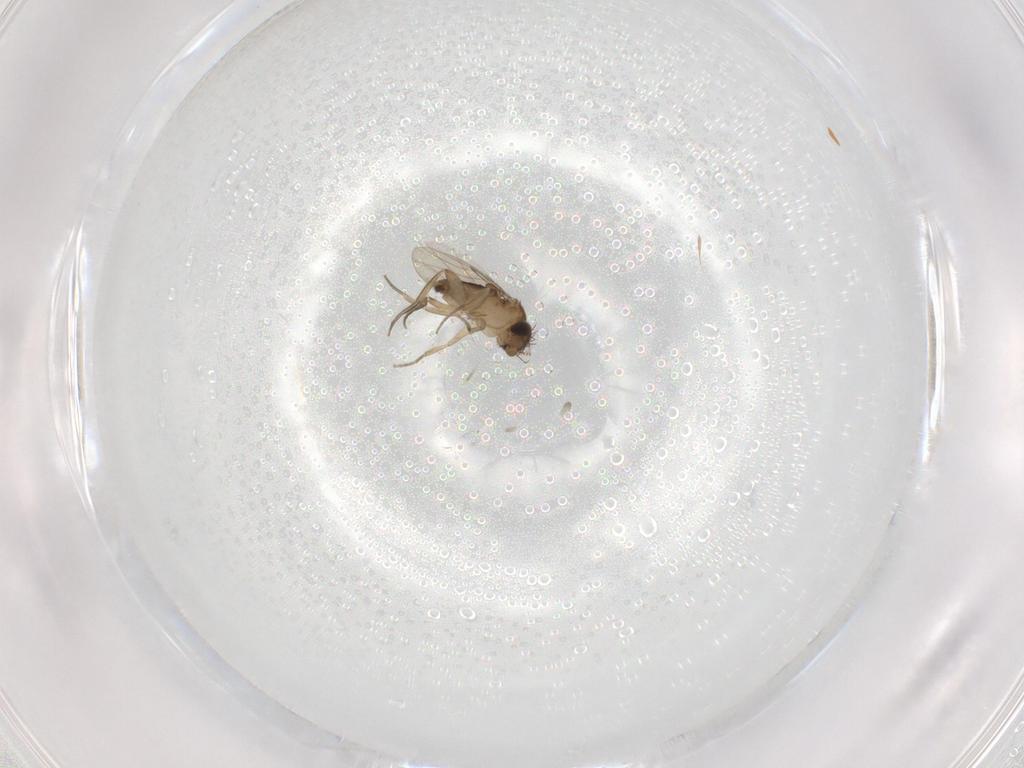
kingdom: Animalia
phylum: Arthropoda
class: Insecta
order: Diptera
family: Phoridae
